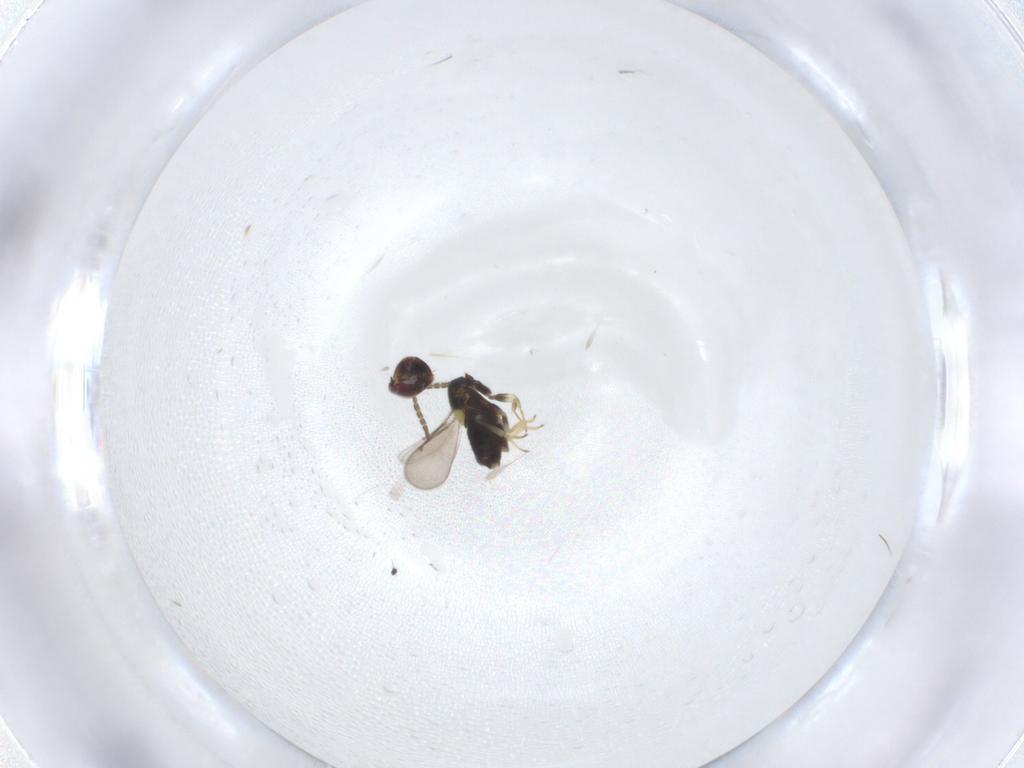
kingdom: Animalia
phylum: Arthropoda
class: Insecta
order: Hymenoptera
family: Aphelinidae
